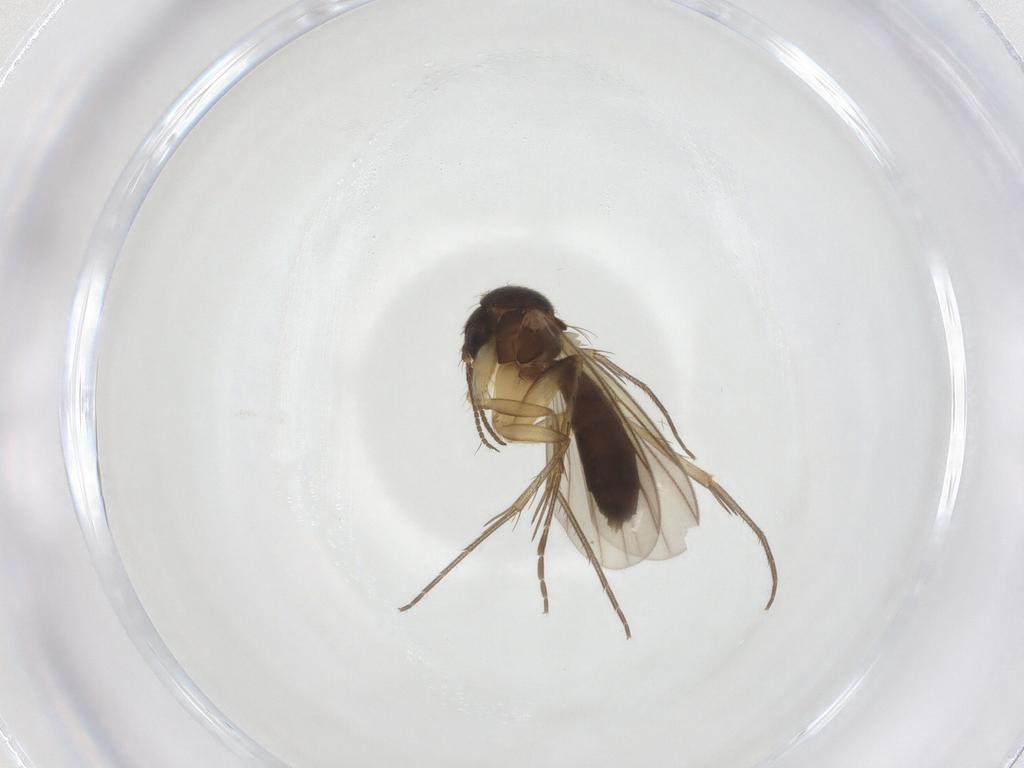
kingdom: Animalia
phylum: Arthropoda
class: Insecta
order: Diptera
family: Mycetophilidae
